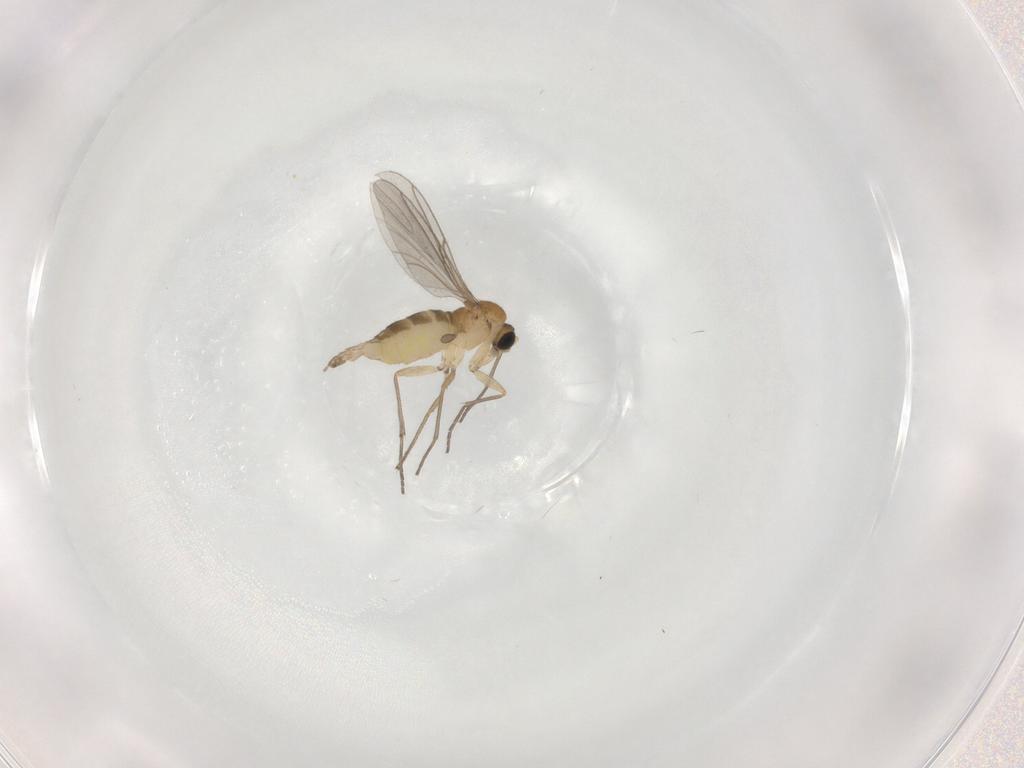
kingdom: Animalia
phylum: Arthropoda
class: Insecta
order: Diptera
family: Sciaridae
